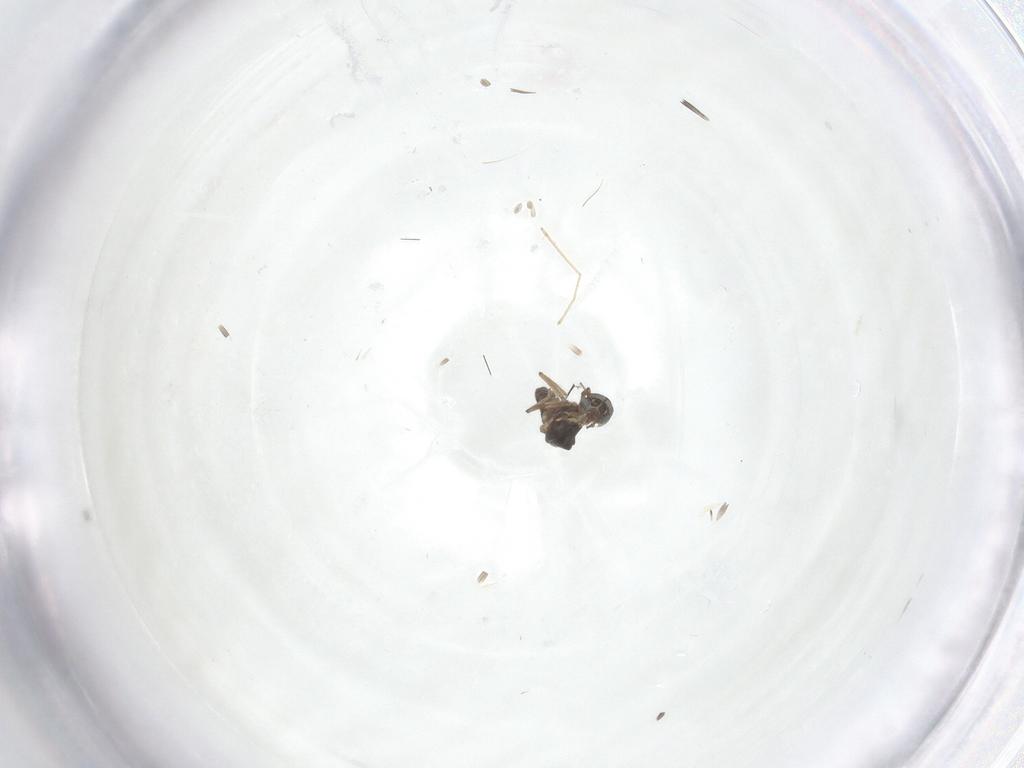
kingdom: Animalia
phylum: Arthropoda
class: Insecta
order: Diptera
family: Ceratopogonidae
